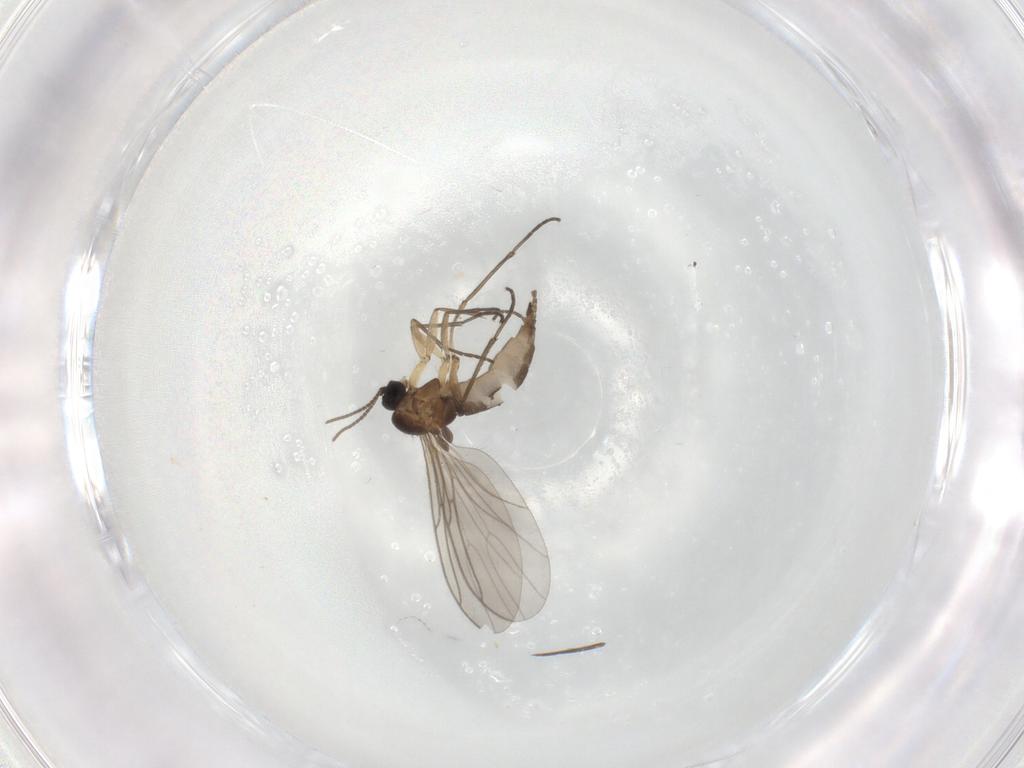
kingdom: Animalia
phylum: Arthropoda
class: Insecta
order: Diptera
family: Sciaridae
